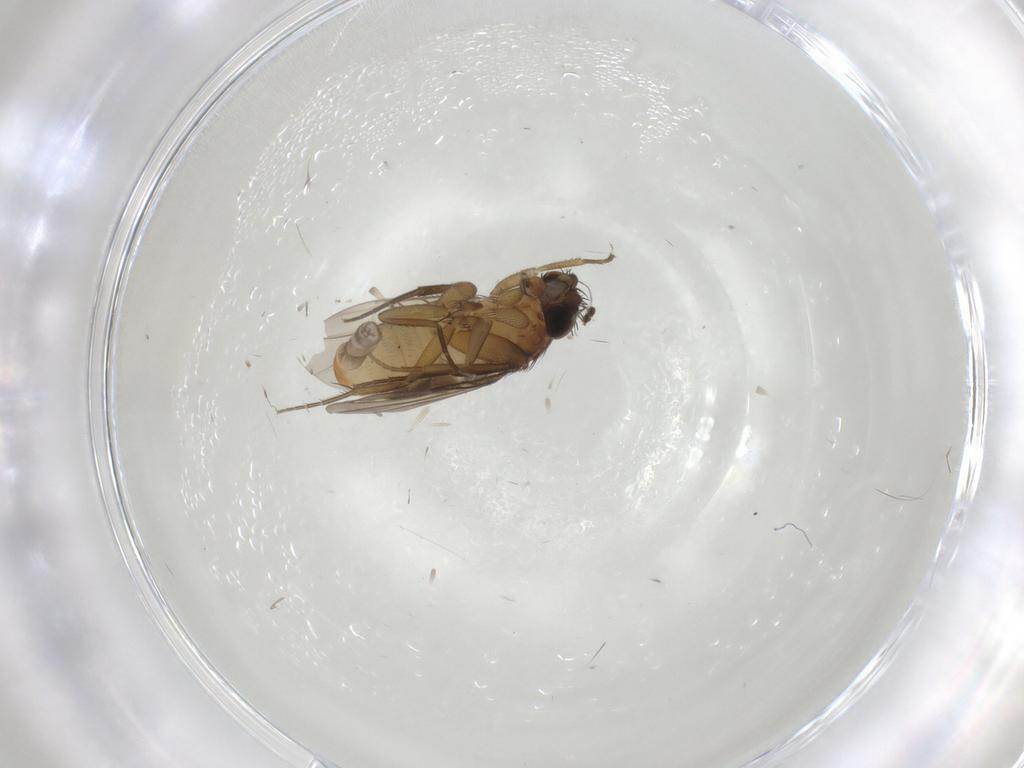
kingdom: Animalia
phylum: Arthropoda
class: Insecta
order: Diptera
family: Phoridae
